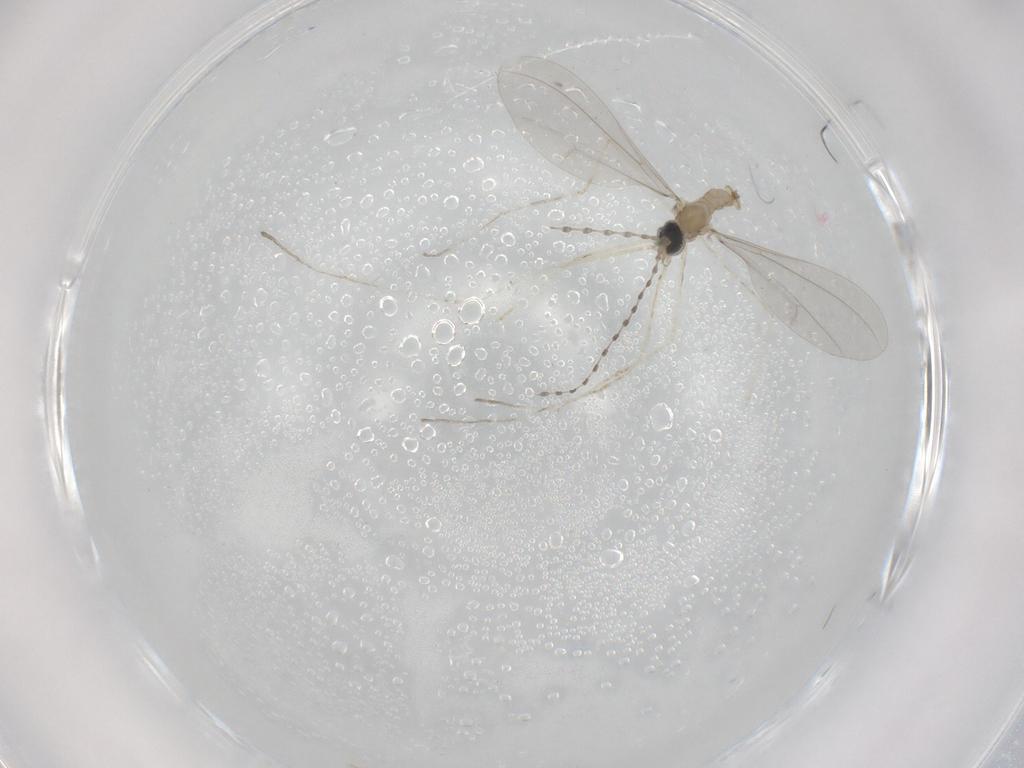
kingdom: Animalia
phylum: Arthropoda
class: Insecta
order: Diptera
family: Cecidomyiidae
